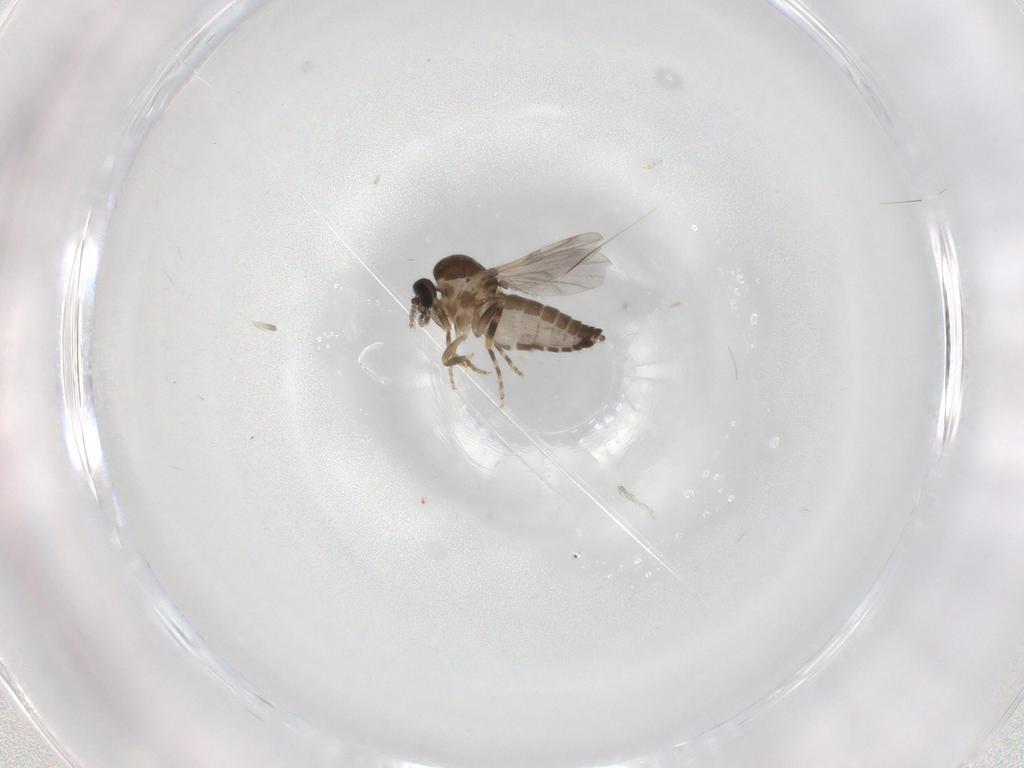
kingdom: Animalia
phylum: Arthropoda
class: Insecta
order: Diptera
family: Ceratopogonidae
